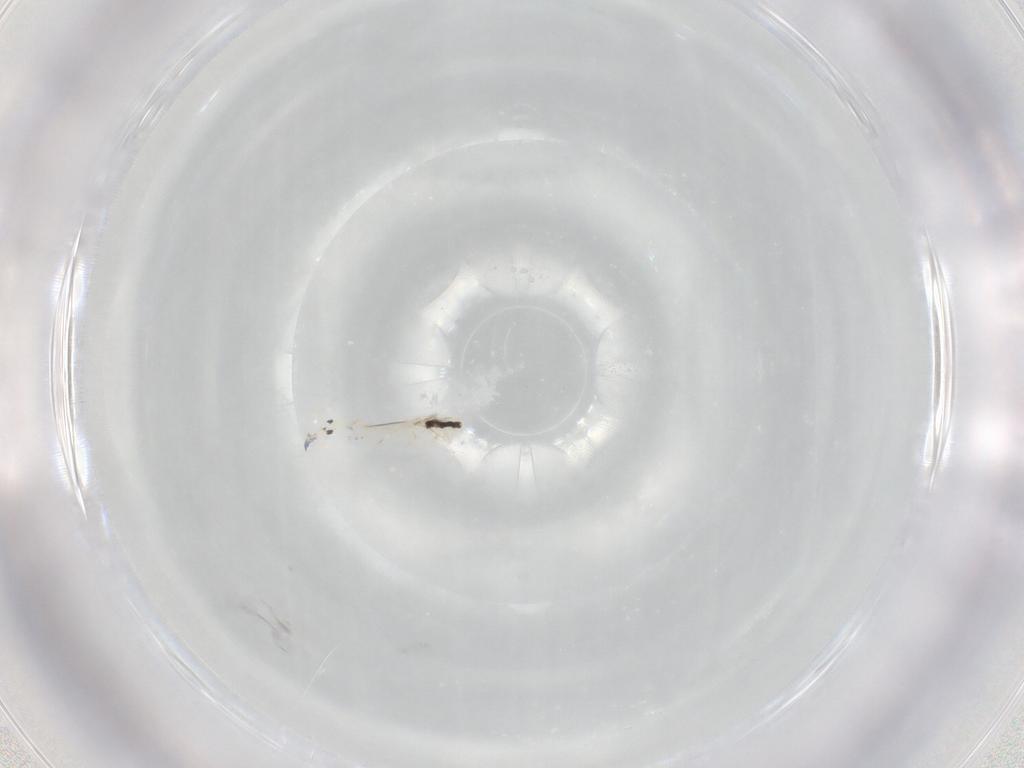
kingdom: Animalia
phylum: Arthropoda
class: Collembola
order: Entomobryomorpha
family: Entomobryidae
